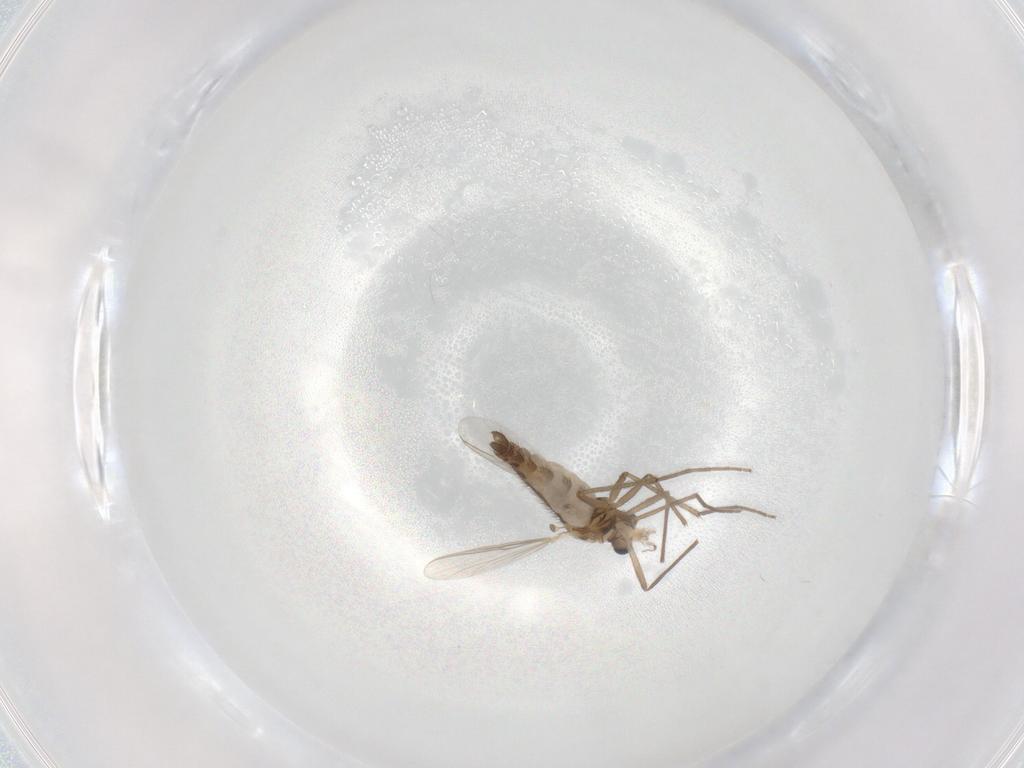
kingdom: Animalia
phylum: Arthropoda
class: Insecta
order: Diptera
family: Chironomidae
